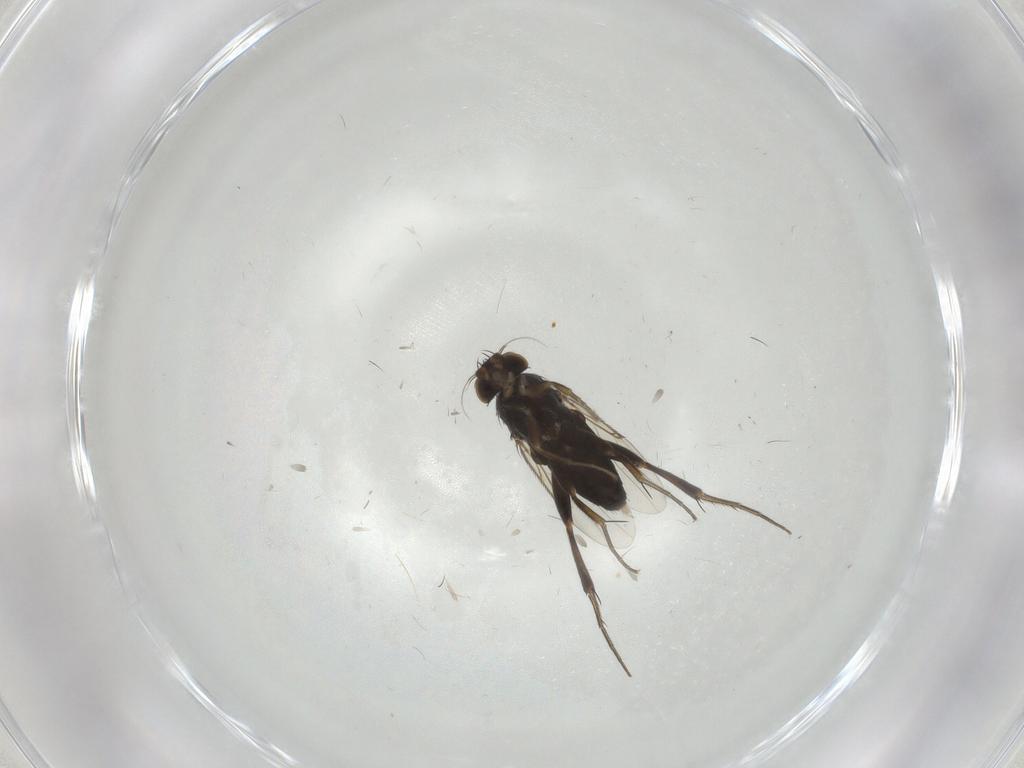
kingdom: Animalia
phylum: Arthropoda
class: Insecta
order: Diptera
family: Phoridae
